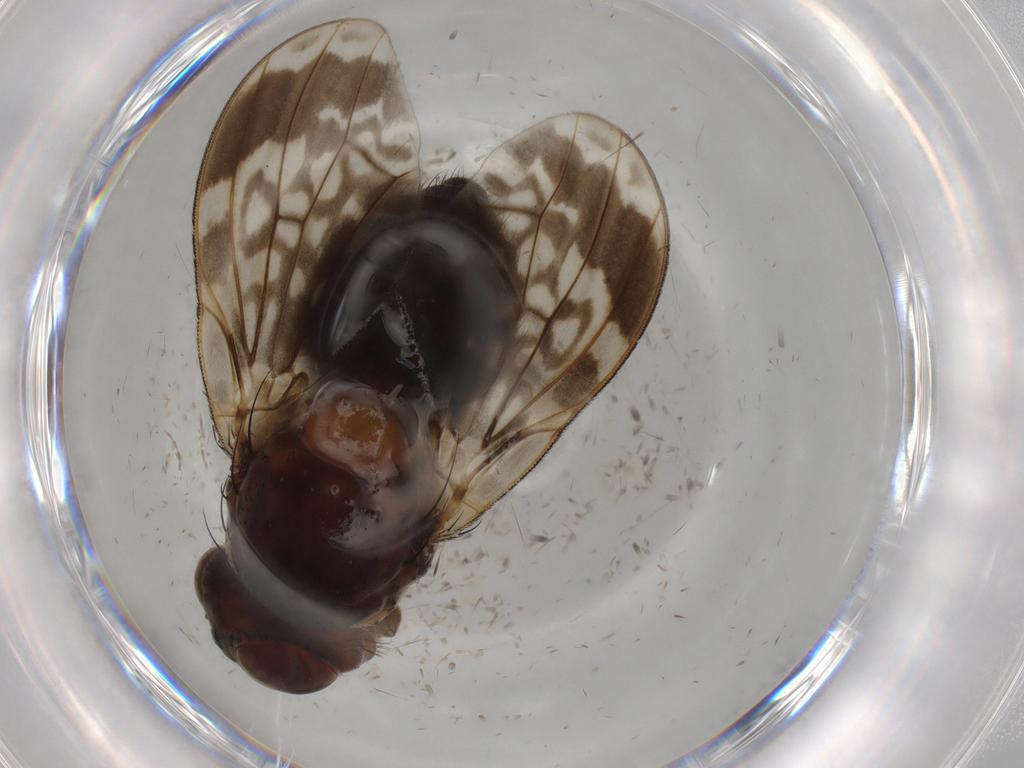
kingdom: Animalia
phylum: Arthropoda
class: Insecta
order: Diptera
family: Lauxaniidae
